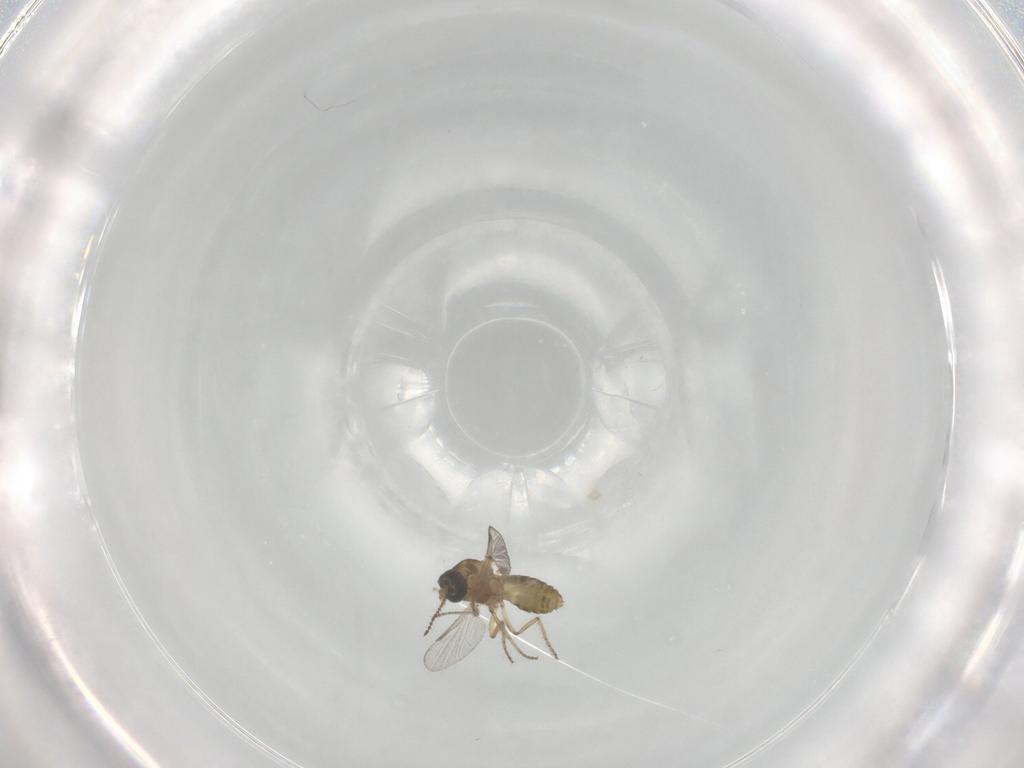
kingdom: Animalia
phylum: Arthropoda
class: Insecta
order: Diptera
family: Ceratopogonidae
